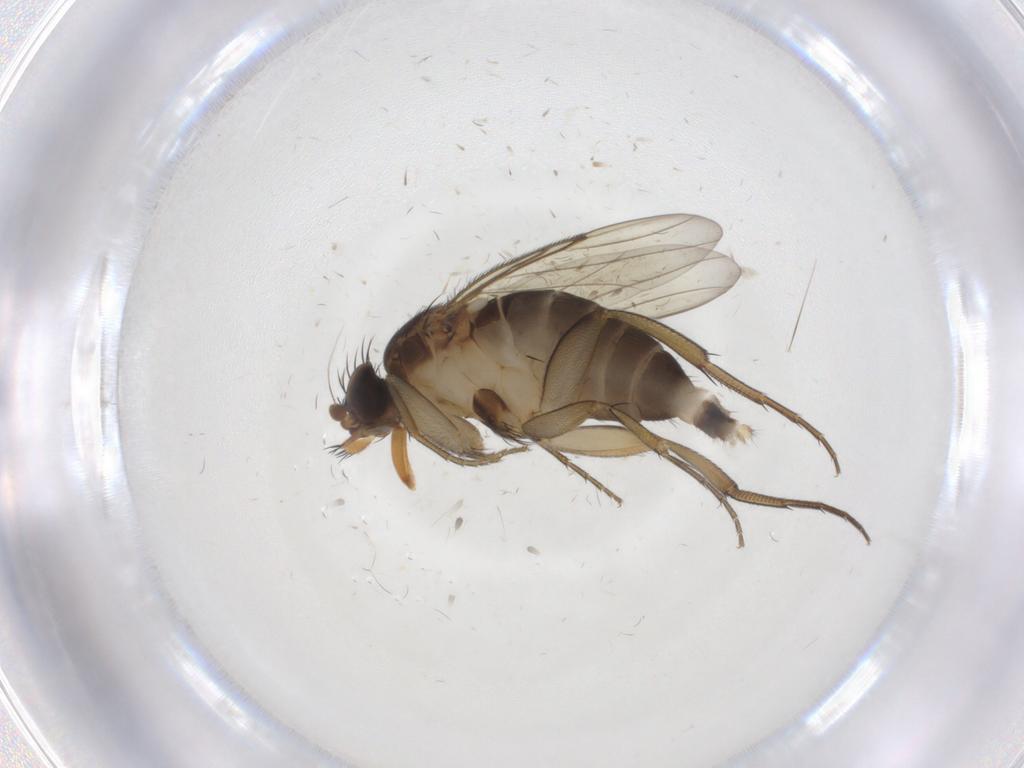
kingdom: Animalia
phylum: Arthropoda
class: Insecta
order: Diptera
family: Phoridae
